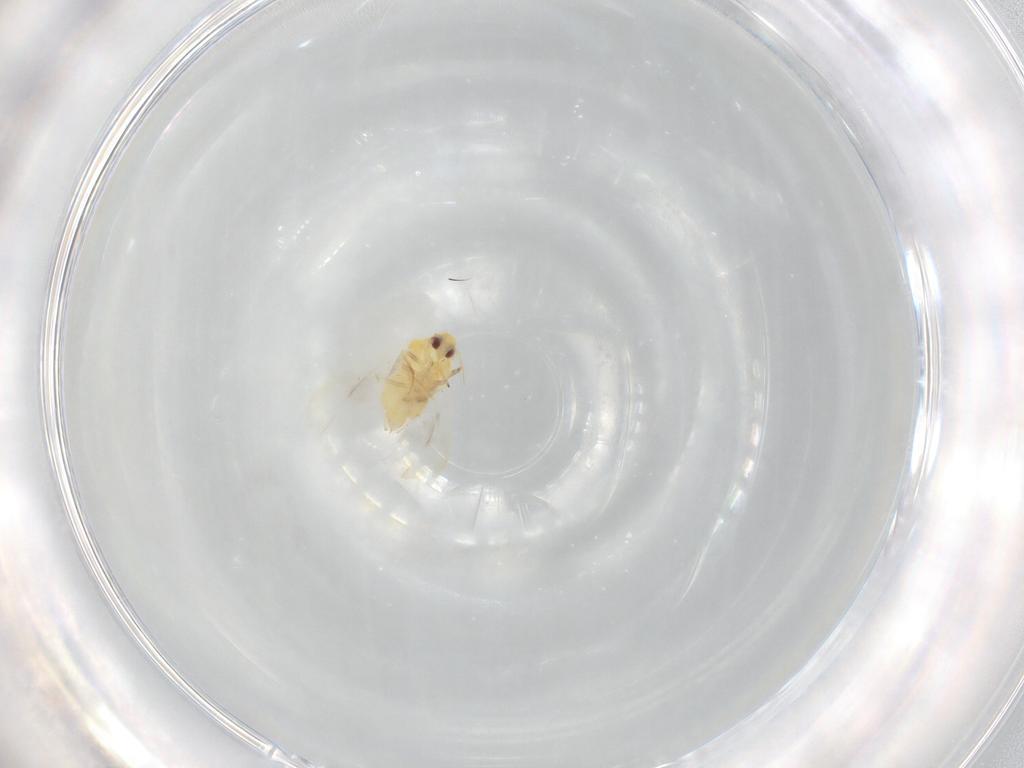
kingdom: Animalia
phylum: Arthropoda
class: Insecta
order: Hemiptera
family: Aleyrodidae
